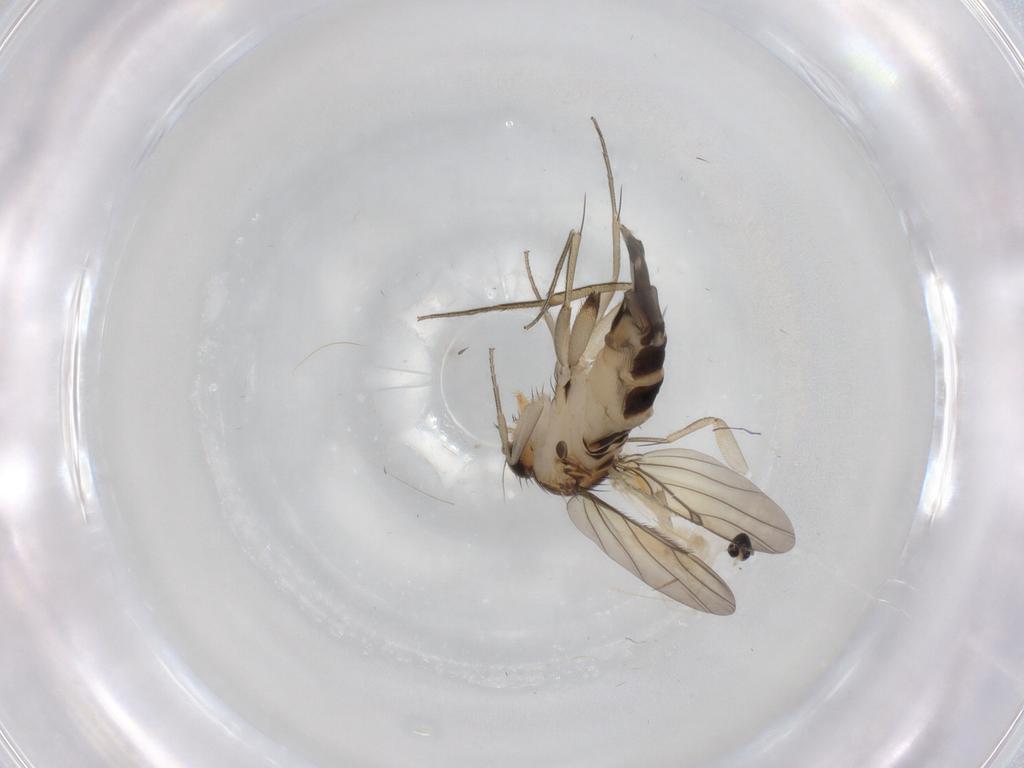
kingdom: Animalia
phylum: Arthropoda
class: Insecta
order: Diptera
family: Phoridae
